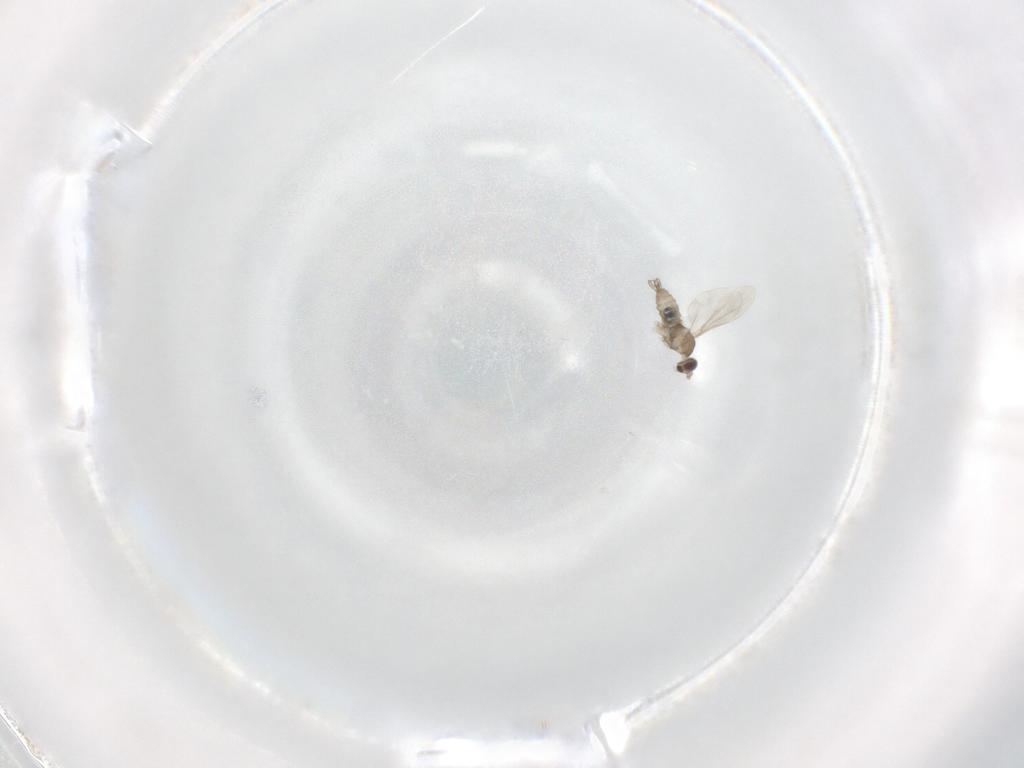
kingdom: Animalia
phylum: Arthropoda
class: Insecta
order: Diptera
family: Cecidomyiidae
